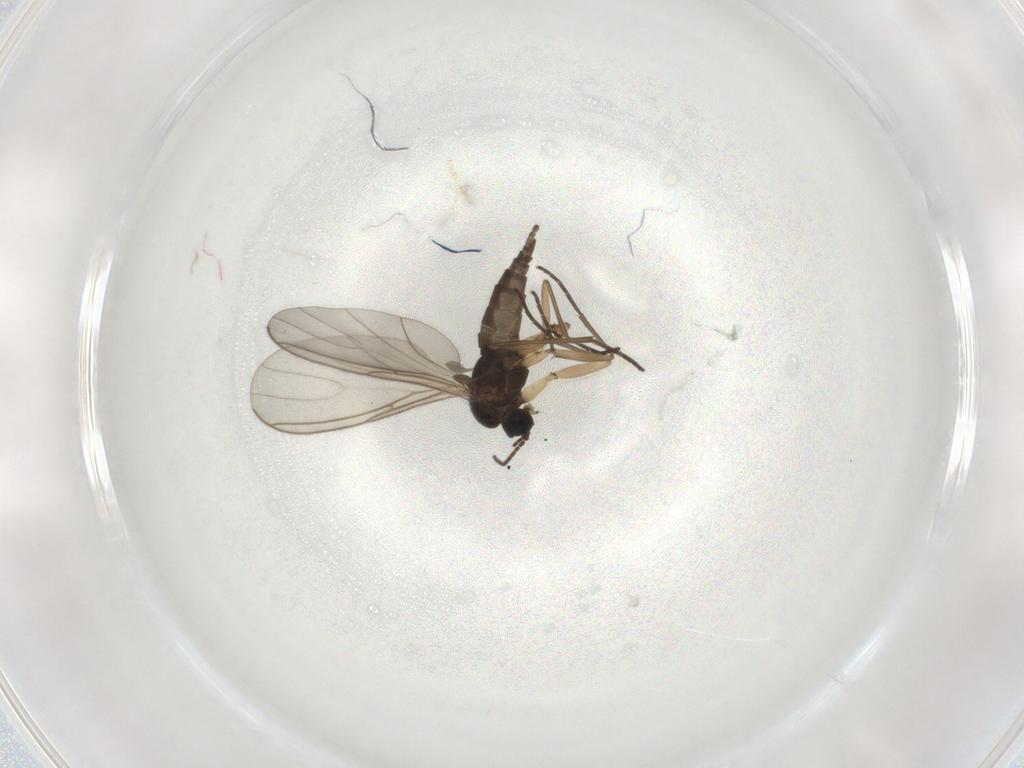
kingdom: Animalia
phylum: Arthropoda
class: Insecta
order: Diptera
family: Sciaridae
